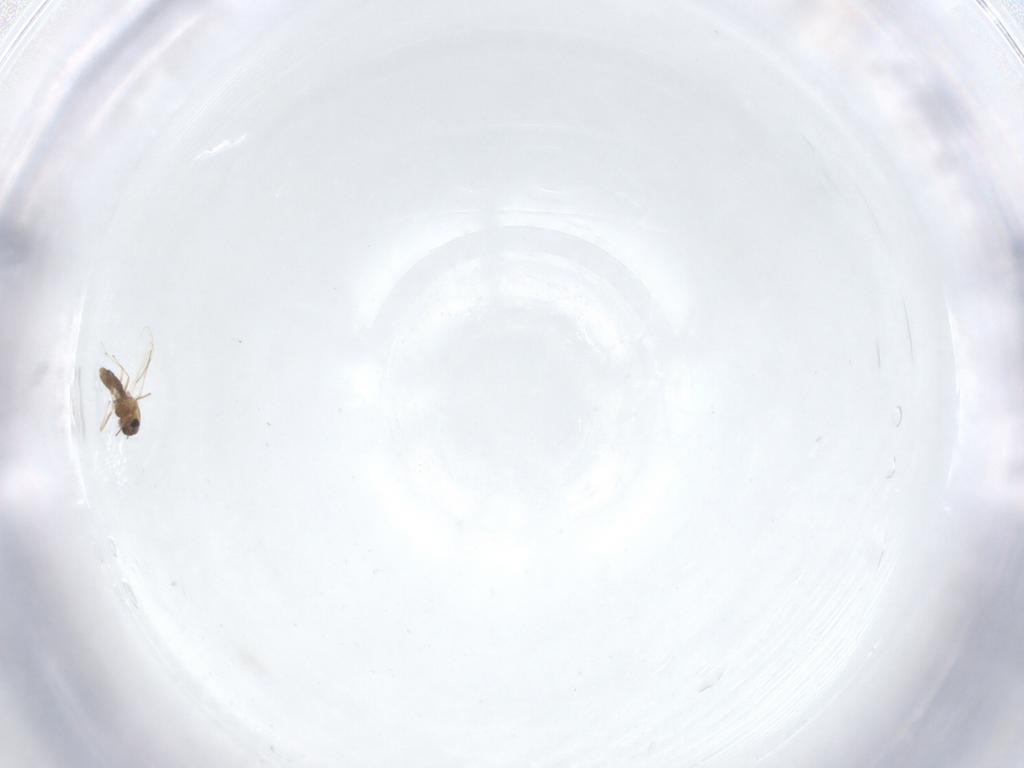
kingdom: Animalia
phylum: Arthropoda
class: Insecta
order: Diptera
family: Chironomidae
